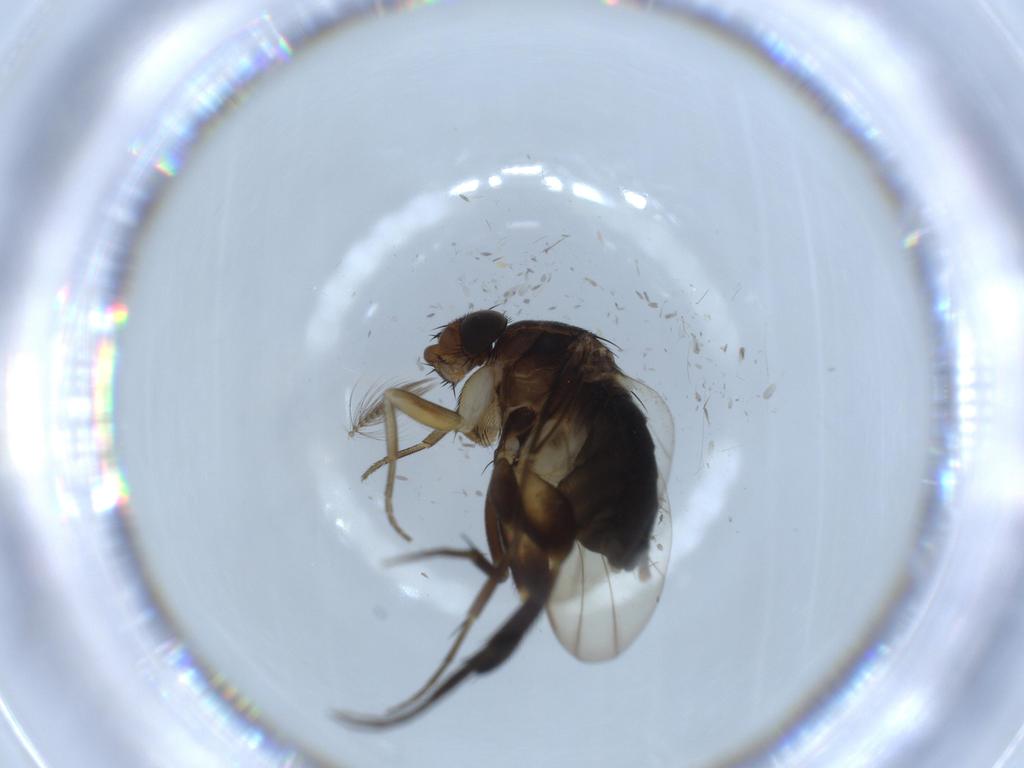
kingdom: Animalia
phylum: Arthropoda
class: Insecta
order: Diptera
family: Phoridae
